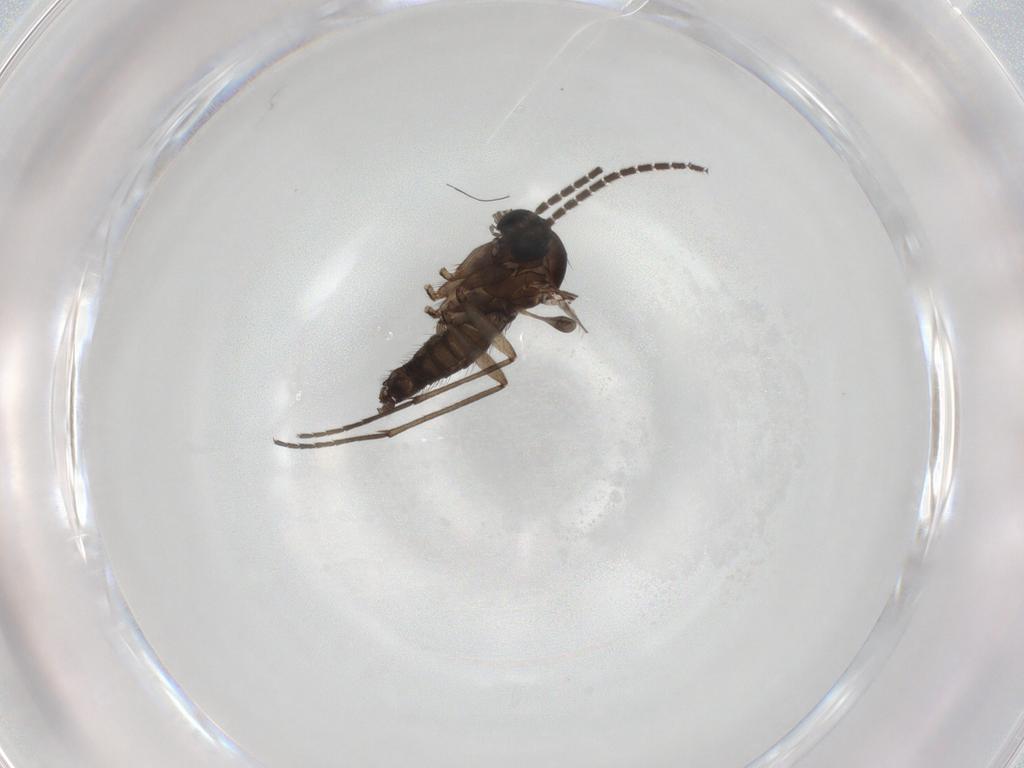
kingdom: Animalia
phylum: Arthropoda
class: Insecta
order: Diptera
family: Sciaridae
